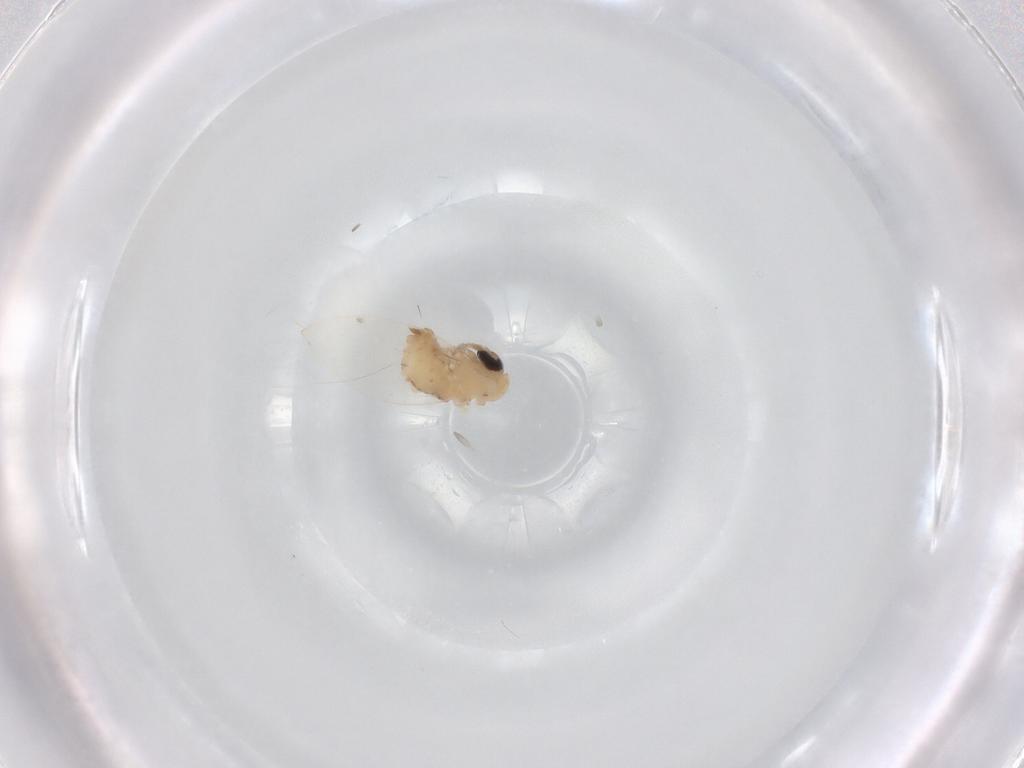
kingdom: Animalia
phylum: Arthropoda
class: Insecta
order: Diptera
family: Psychodidae
